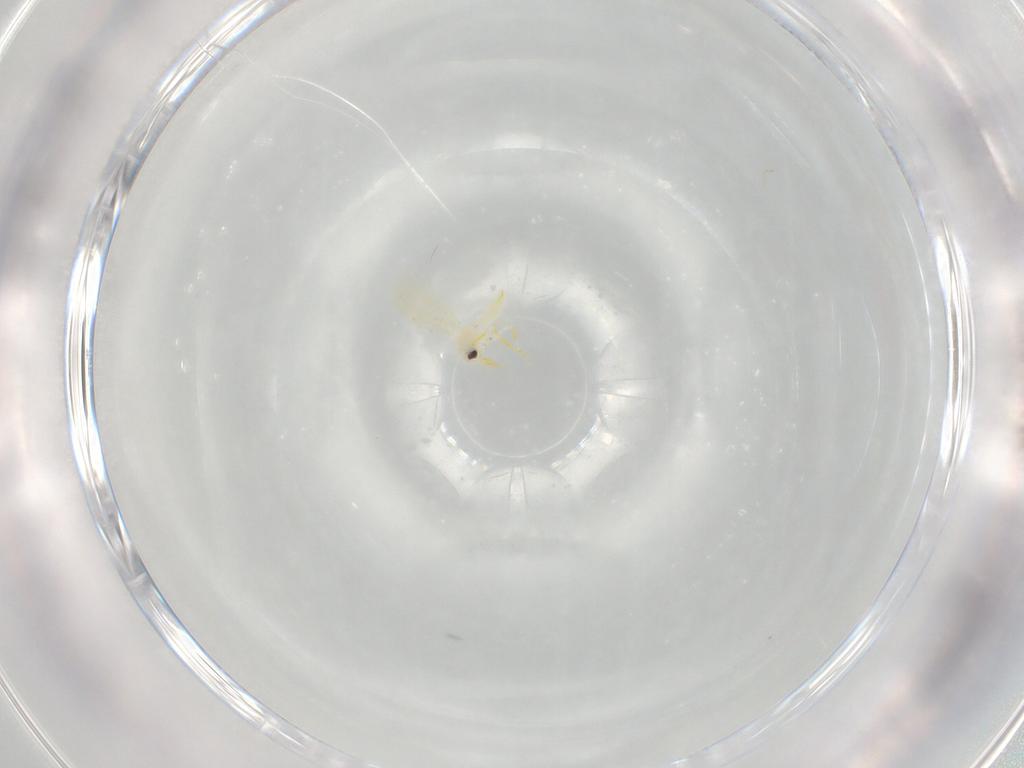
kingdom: Animalia
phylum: Arthropoda
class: Insecta
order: Hemiptera
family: Aleyrodidae
